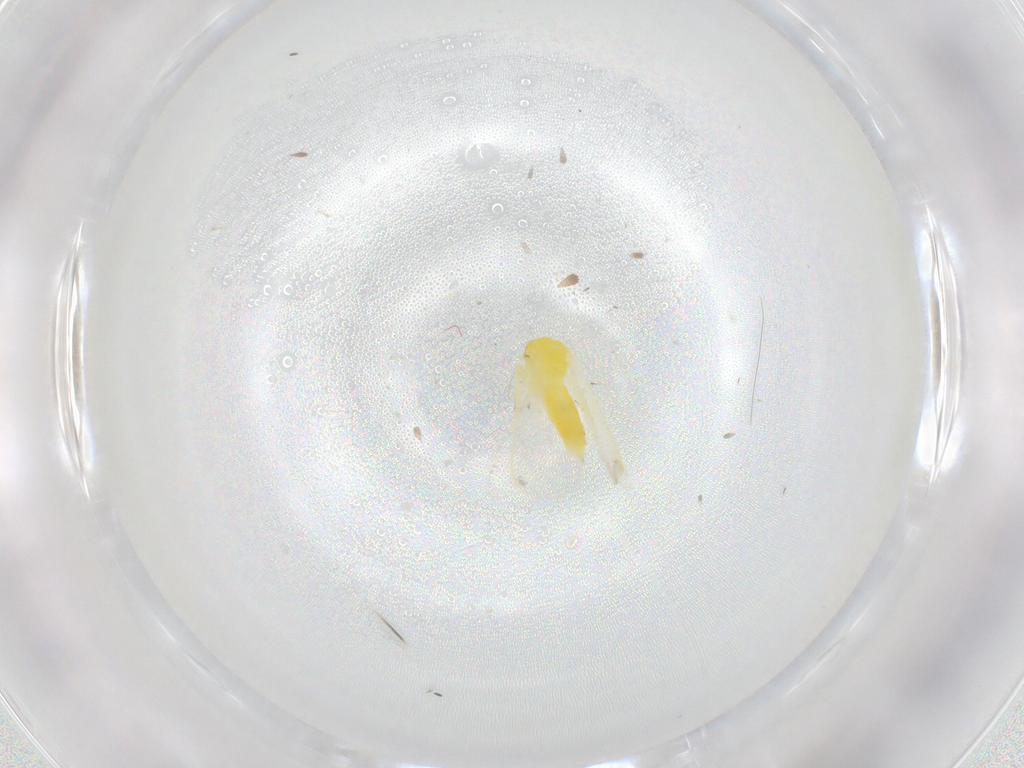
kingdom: Animalia
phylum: Arthropoda
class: Insecta
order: Hemiptera
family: Aleyrodidae
